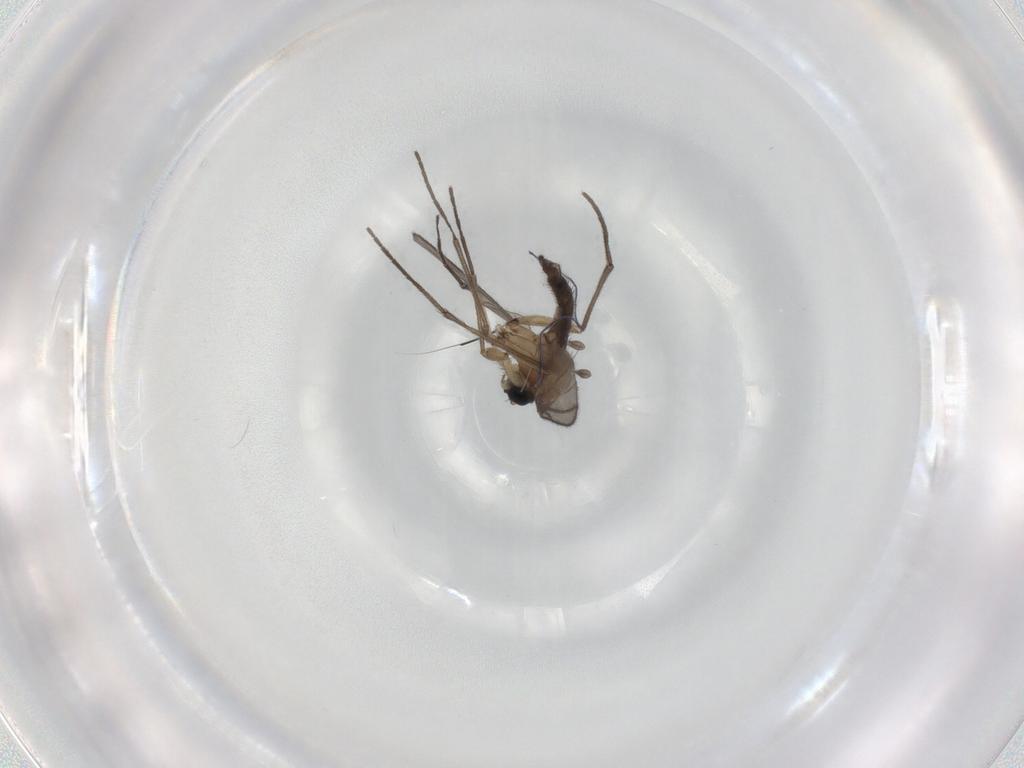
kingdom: Animalia
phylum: Arthropoda
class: Insecta
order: Diptera
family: Sciaridae
